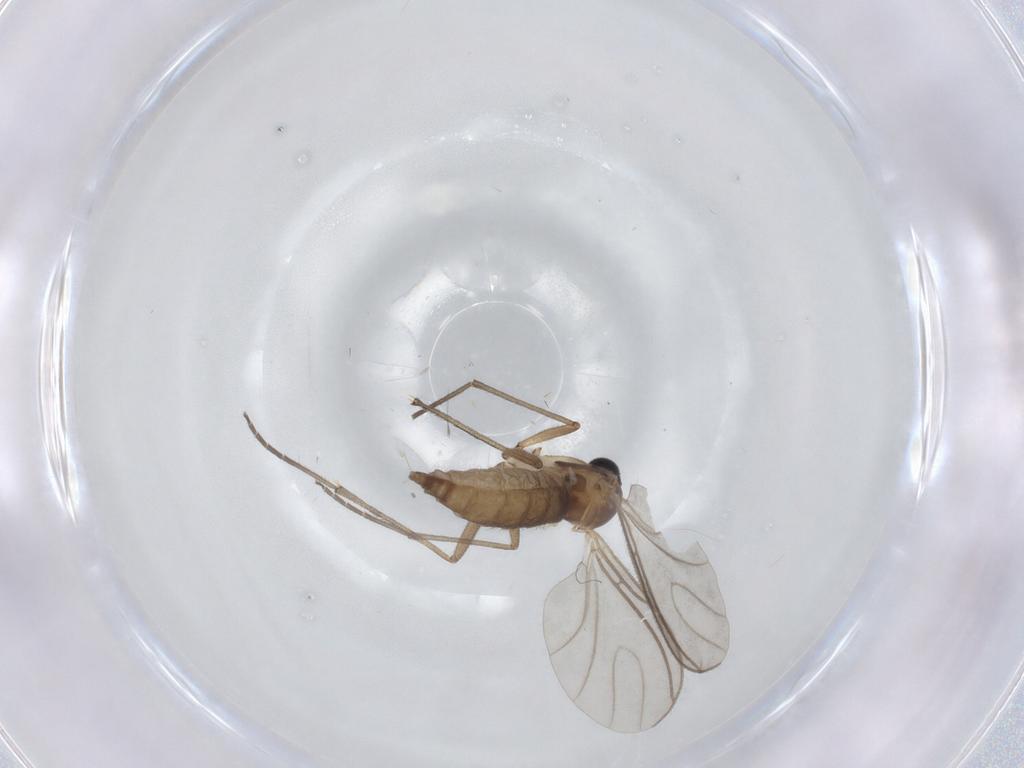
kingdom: Animalia
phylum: Arthropoda
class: Insecta
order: Diptera
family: Sciaridae
